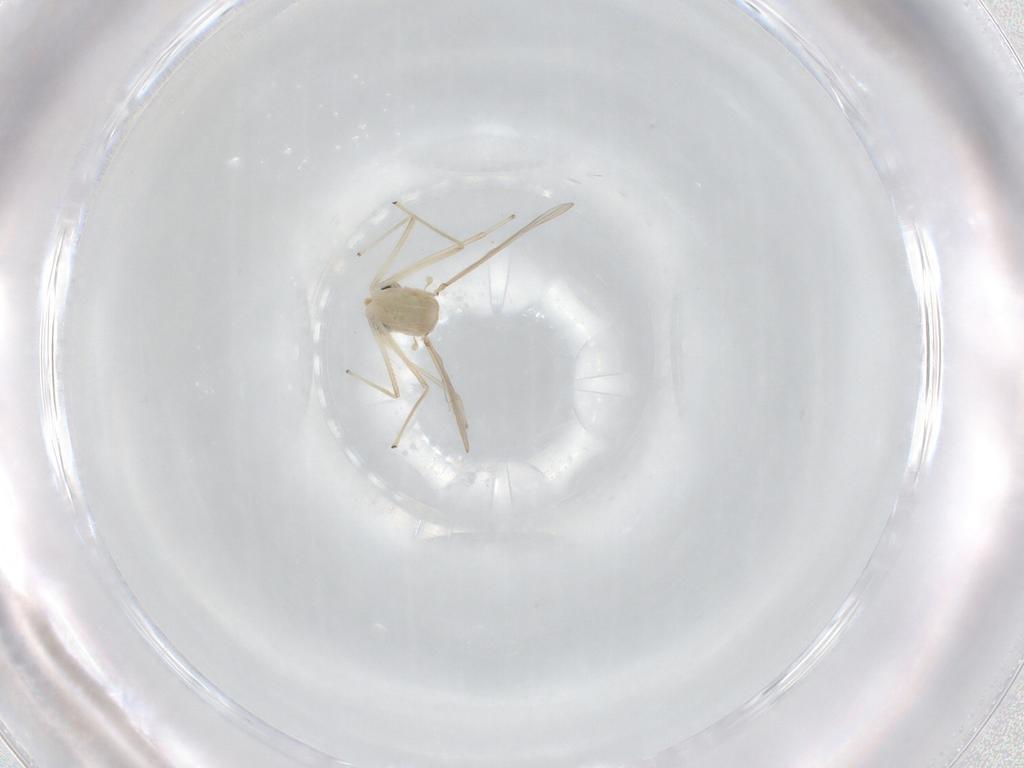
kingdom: Animalia
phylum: Arthropoda
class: Insecta
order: Diptera
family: Chironomidae
